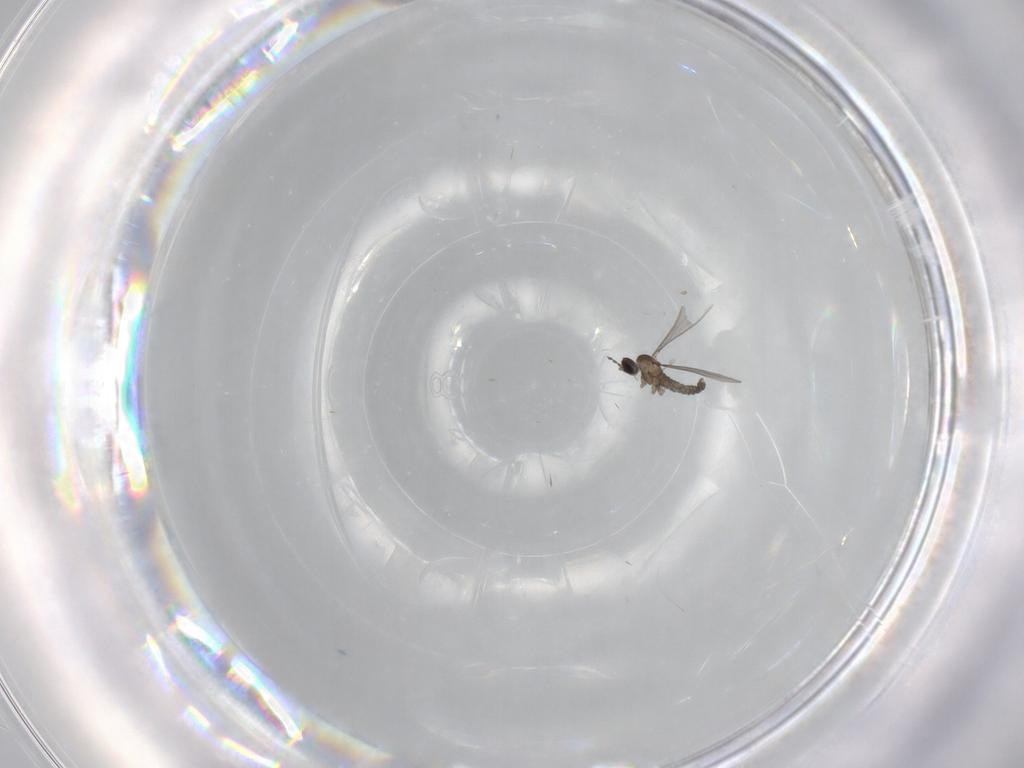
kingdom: Animalia
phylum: Arthropoda
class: Insecta
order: Diptera
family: Cecidomyiidae
